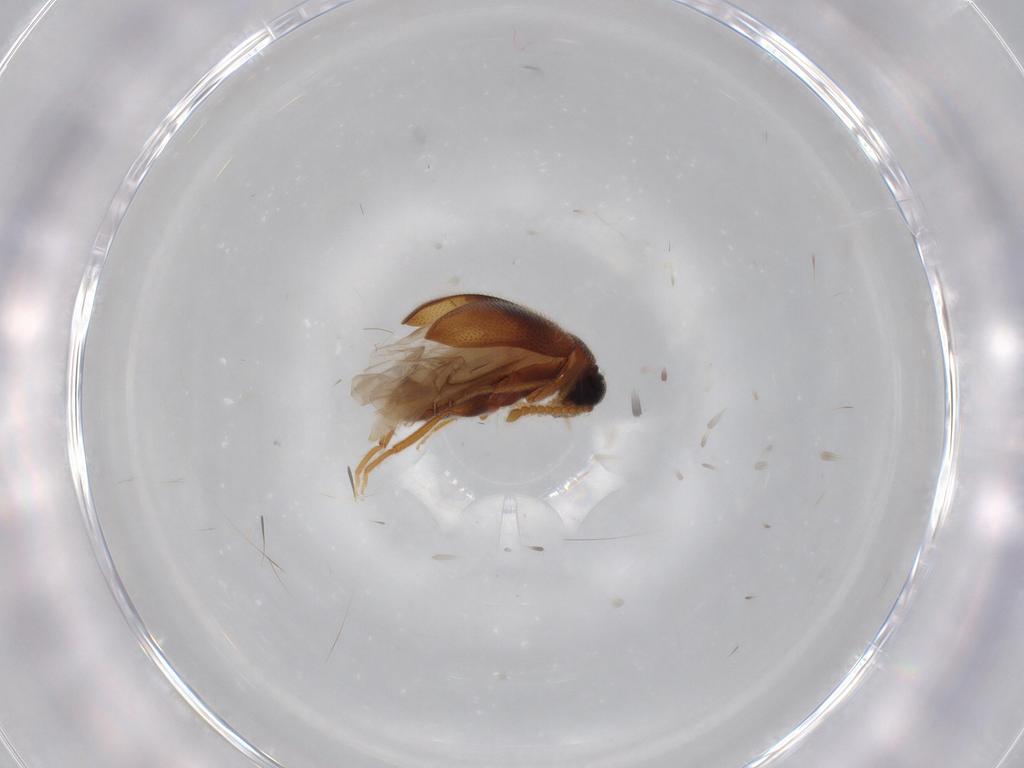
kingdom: Animalia
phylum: Arthropoda
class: Insecta
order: Coleoptera
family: Aderidae
